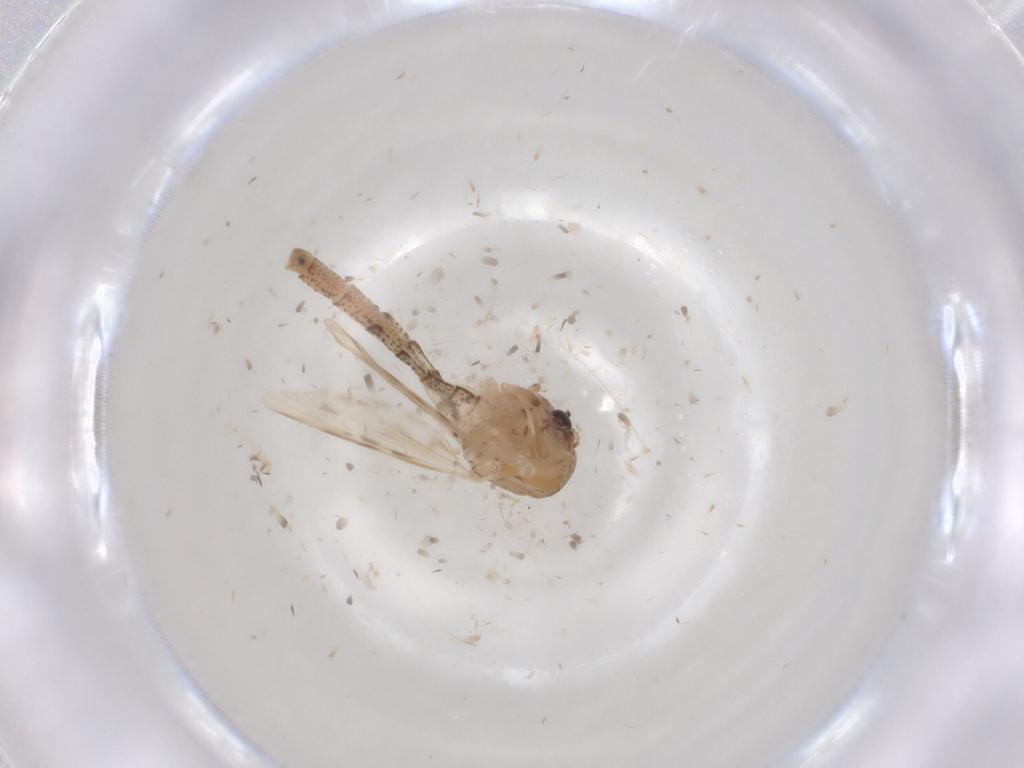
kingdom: Animalia
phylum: Arthropoda
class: Insecta
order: Diptera
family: Chaoboridae
